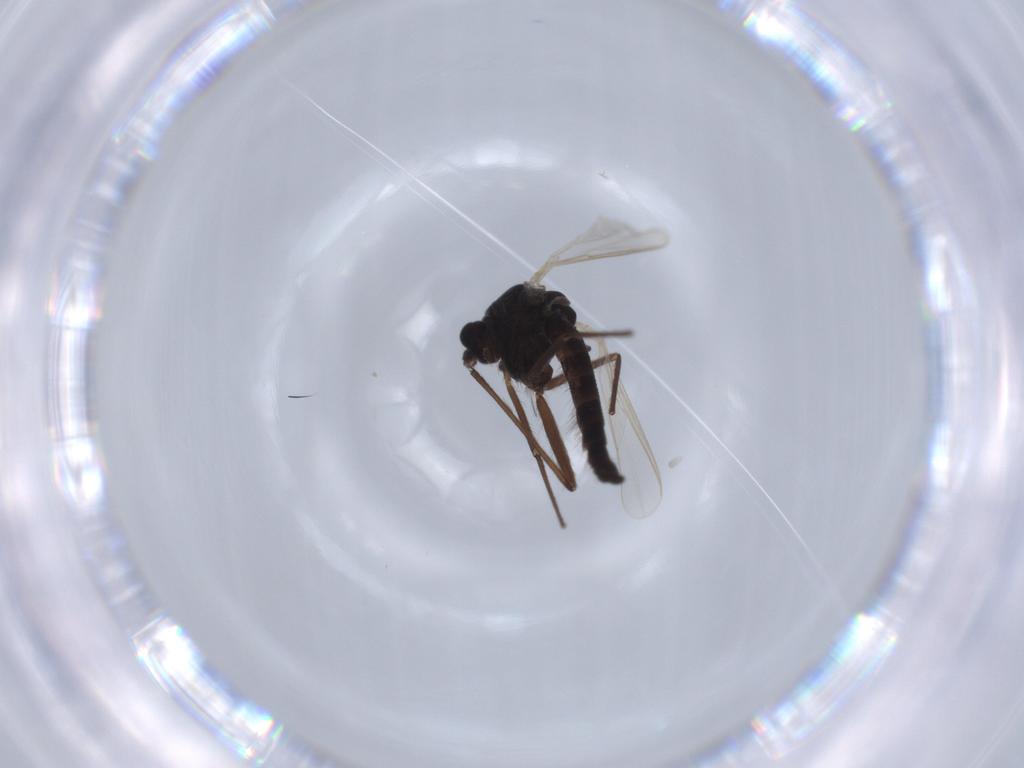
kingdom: Animalia
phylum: Arthropoda
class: Insecta
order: Diptera
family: Chironomidae
